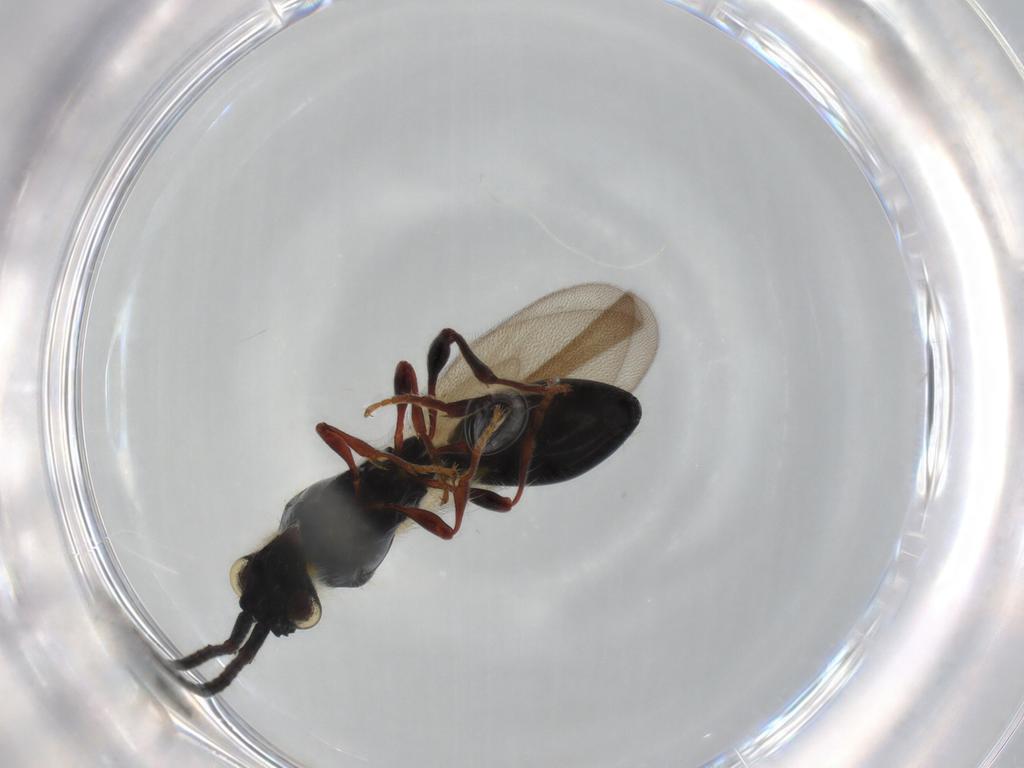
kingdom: Animalia
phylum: Arthropoda
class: Insecta
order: Hymenoptera
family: Diapriidae
